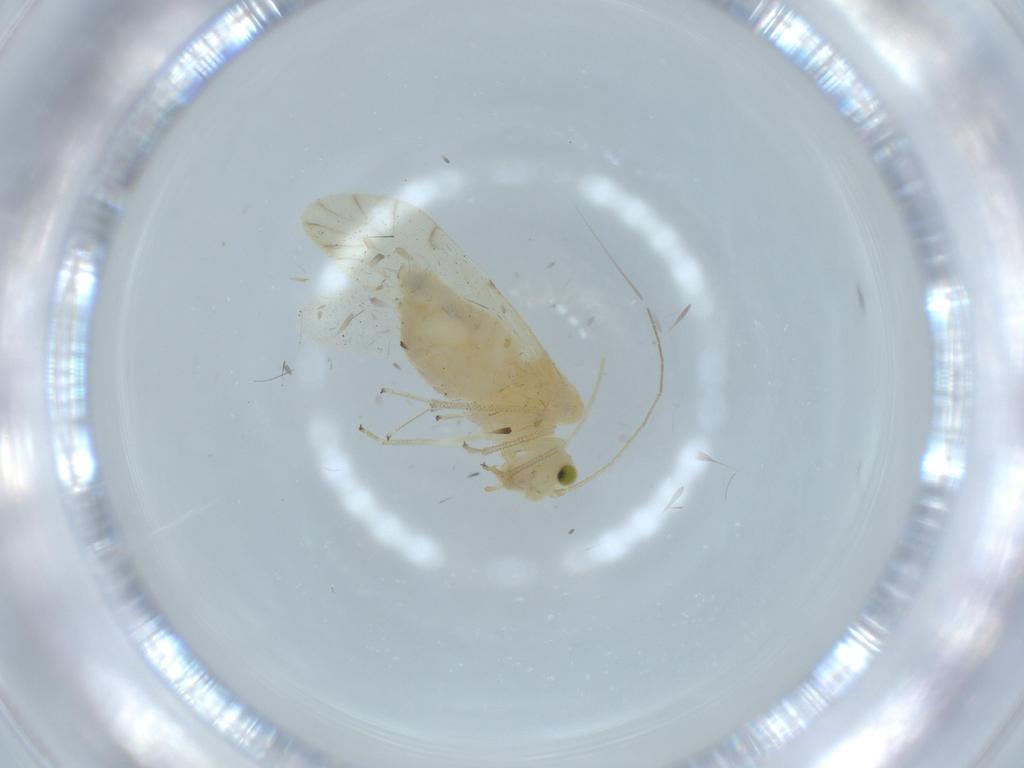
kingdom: Animalia
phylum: Arthropoda
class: Insecta
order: Psocodea
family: Caeciliusidae
